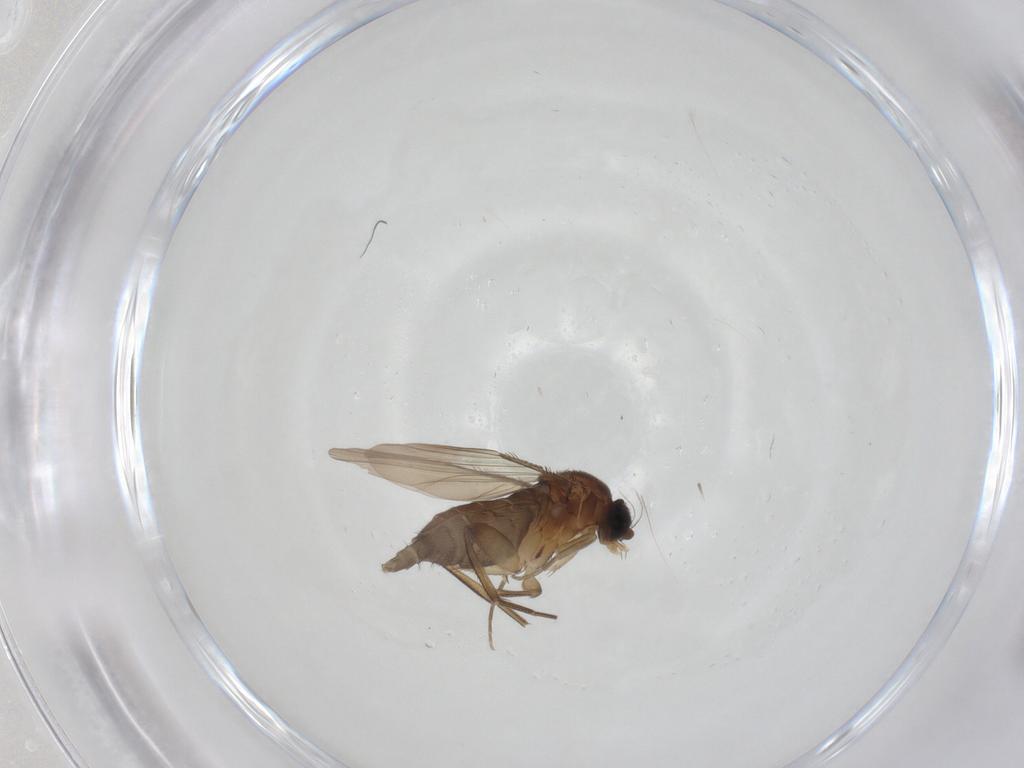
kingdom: Animalia
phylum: Arthropoda
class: Insecta
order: Diptera
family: Phoridae
